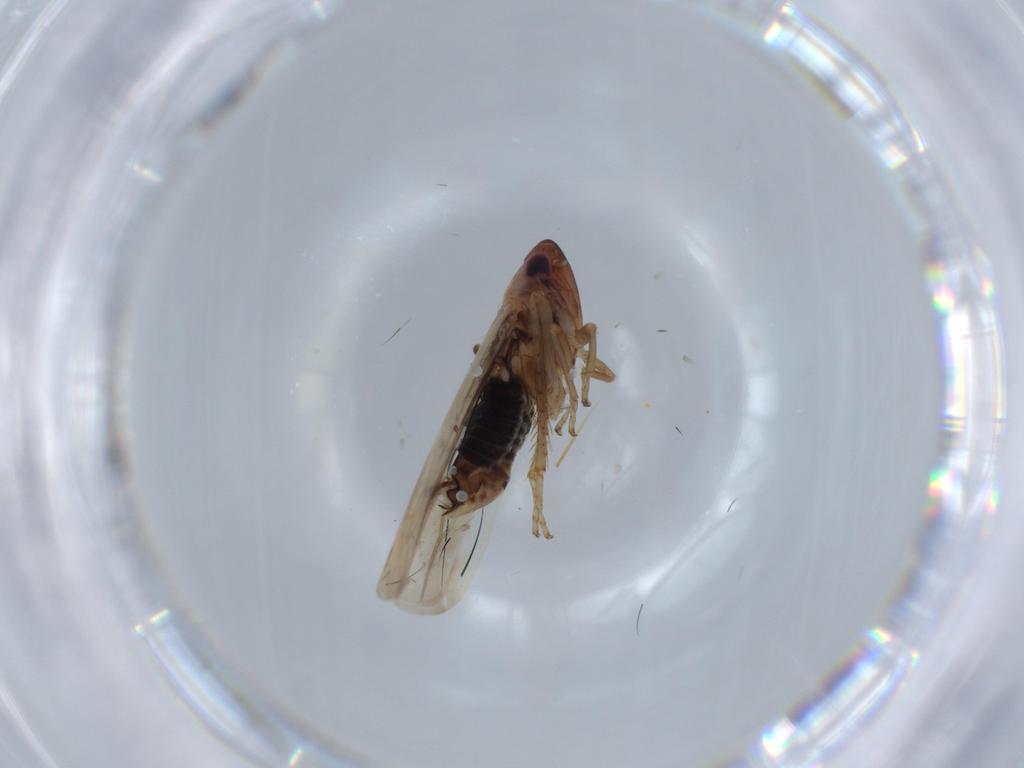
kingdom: Animalia
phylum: Arthropoda
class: Insecta
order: Hemiptera
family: Cicadellidae
